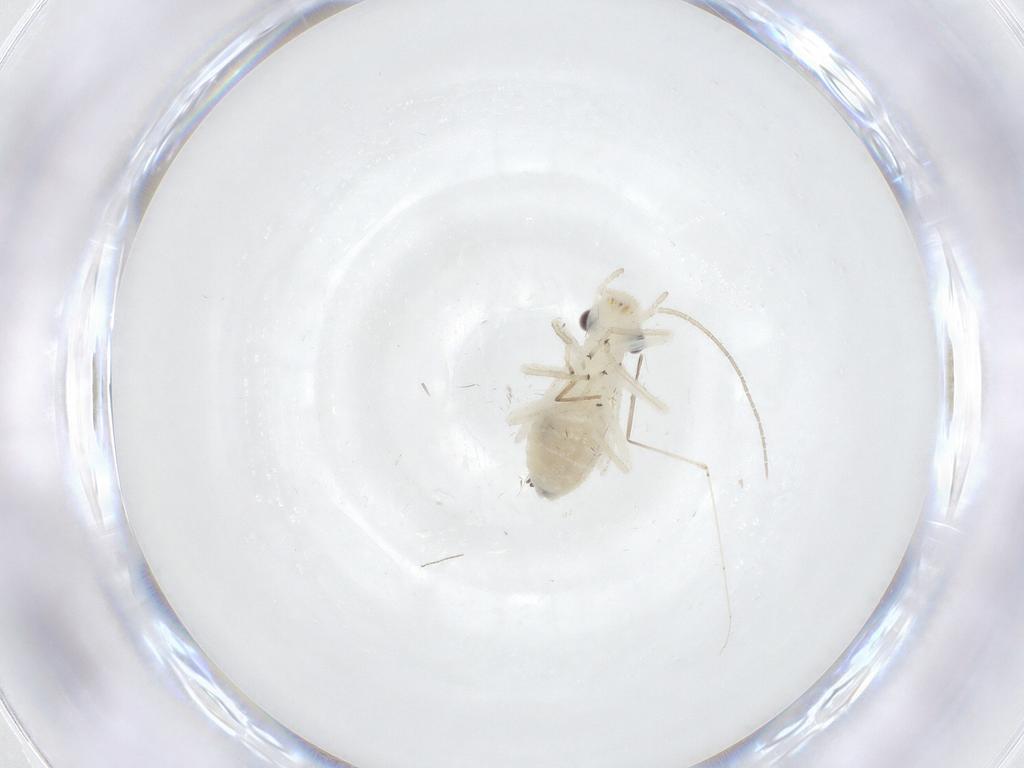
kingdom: Animalia
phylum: Arthropoda
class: Insecta
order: Psocodea
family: Caeciliusidae
